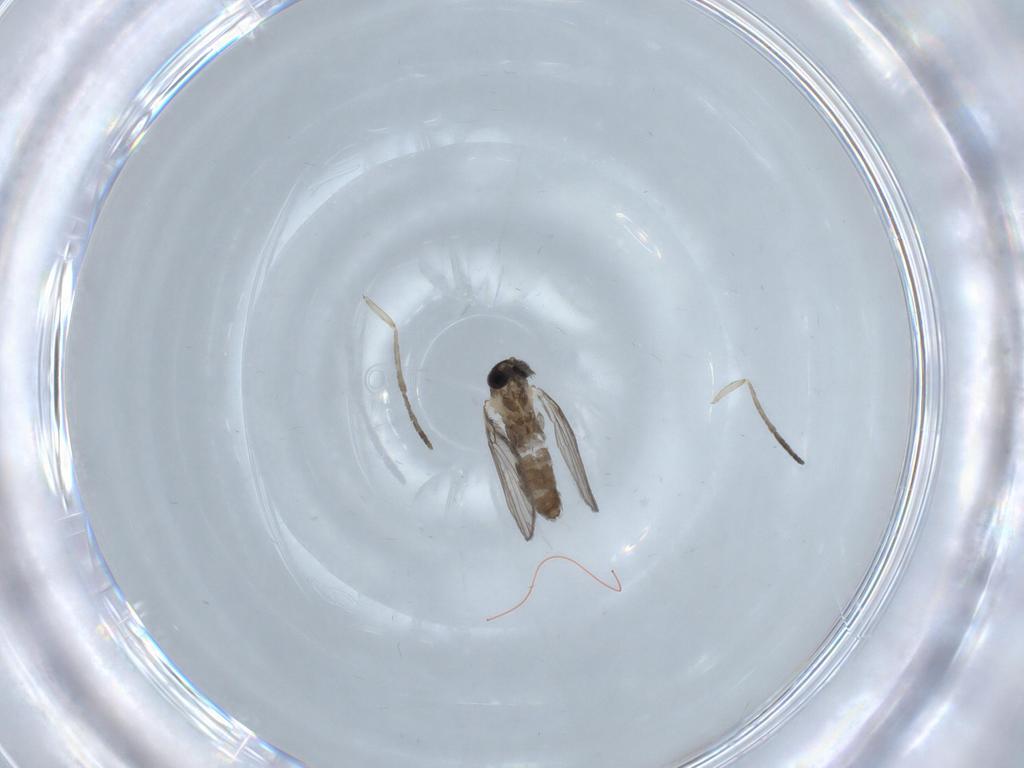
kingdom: Animalia
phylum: Arthropoda
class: Insecta
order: Diptera
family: Psychodidae
